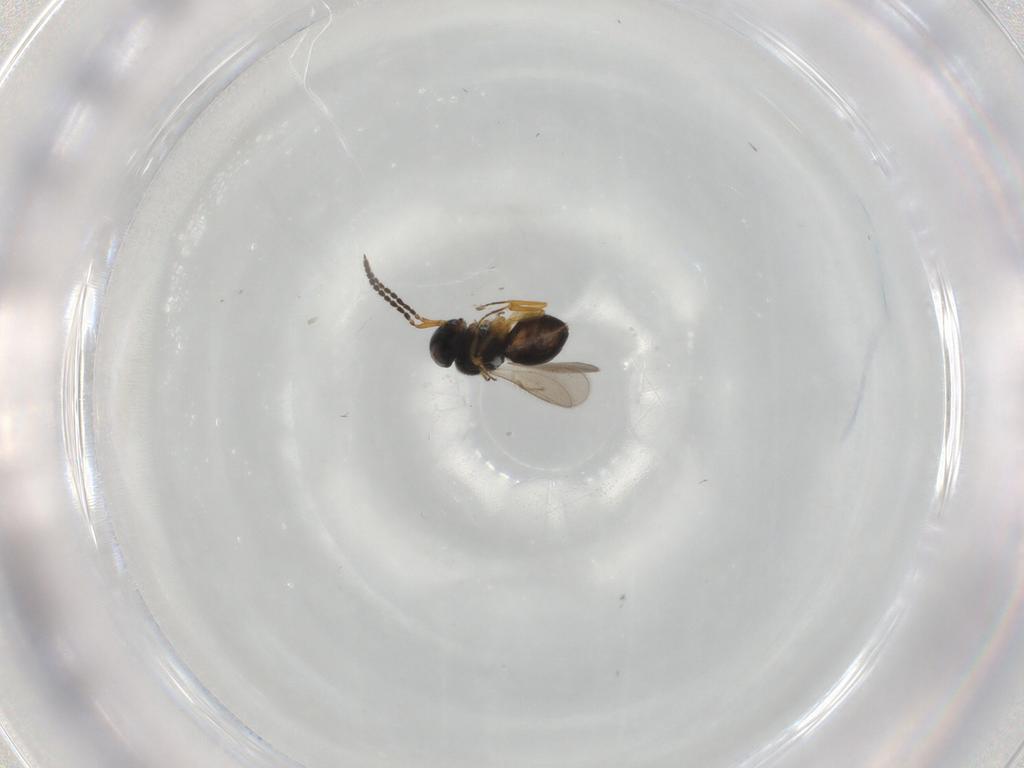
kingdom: Animalia
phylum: Arthropoda
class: Insecta
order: Hymenoptera
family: Scelionidae
